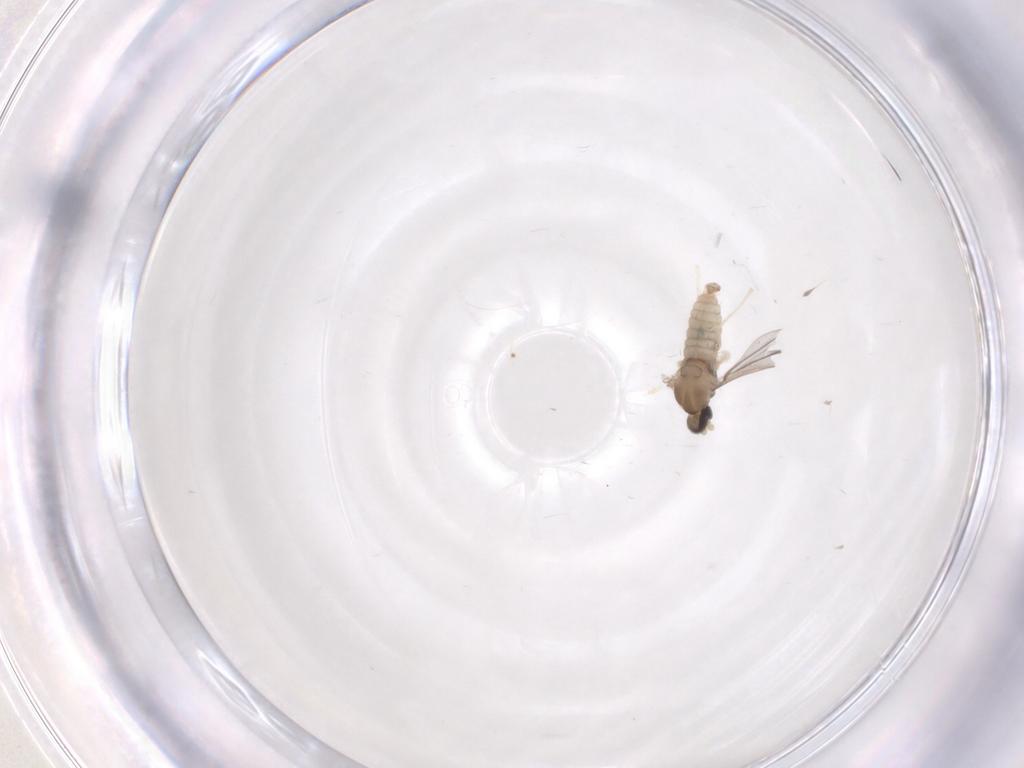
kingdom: Animalia
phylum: Arthropoda
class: Insecta
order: Diptera
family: Cecidomyiidae
